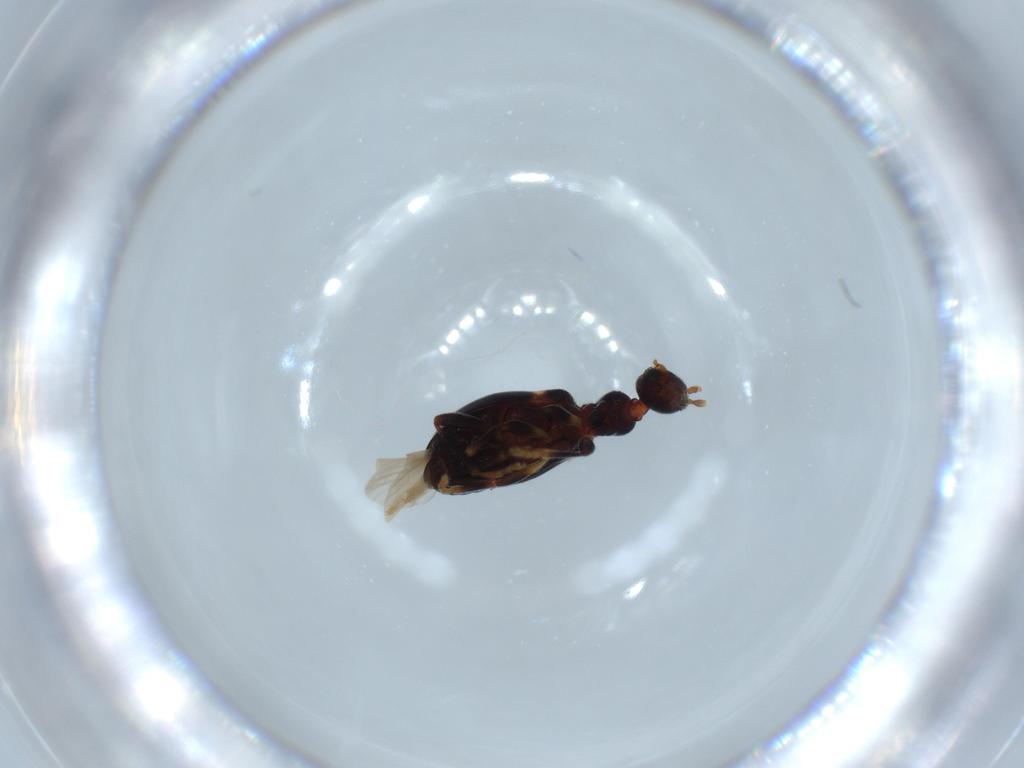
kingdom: Animalia
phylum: Arthropoda
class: Insecta
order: Coleoptera
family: Anthicidae
